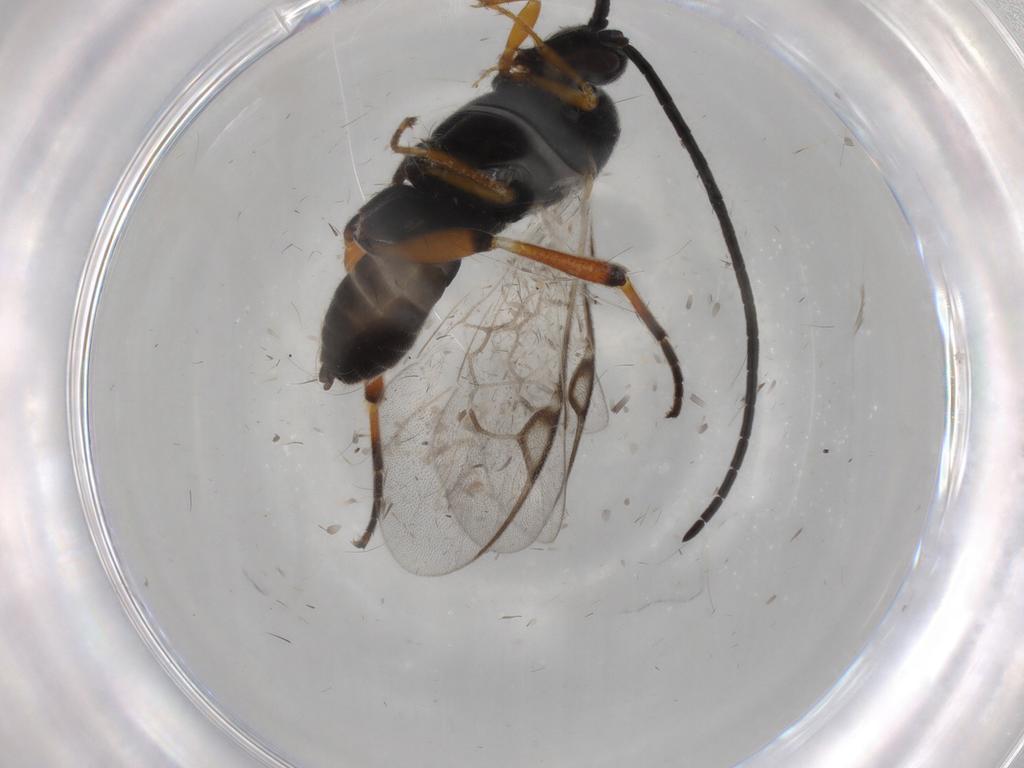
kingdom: Animalia
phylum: Arthropoda
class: Insecta
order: Hymenoptera
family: Braconidae
